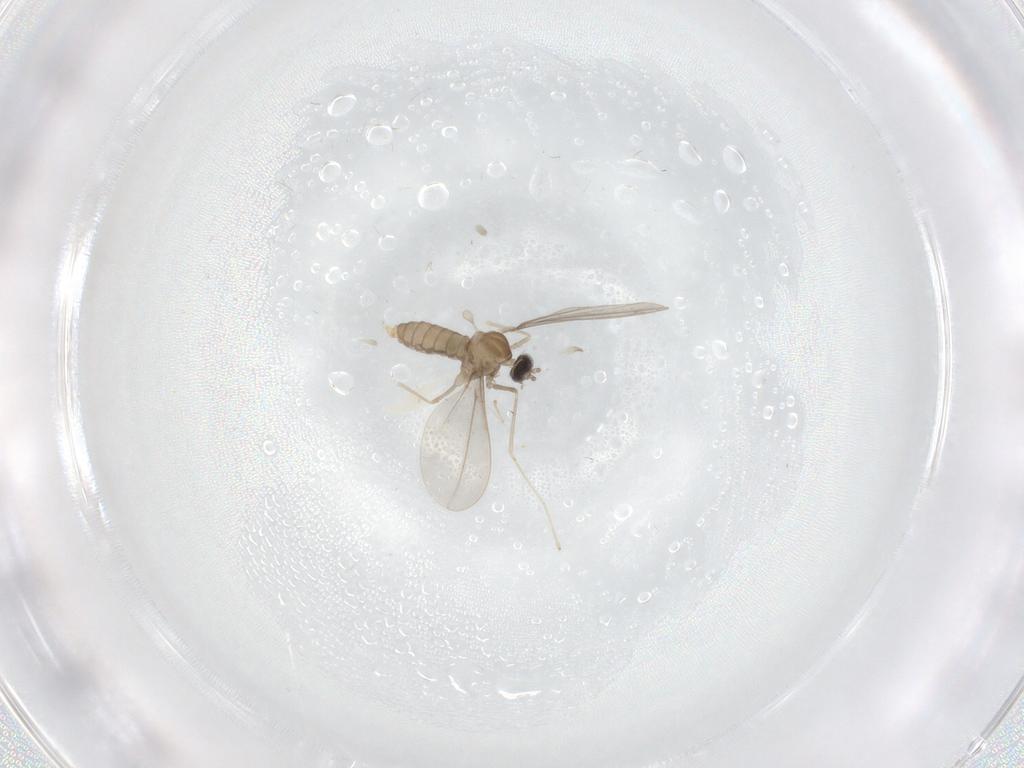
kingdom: Animalia
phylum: Arthropoda
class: Insecta
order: Diptera
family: Cecidomyiidae
